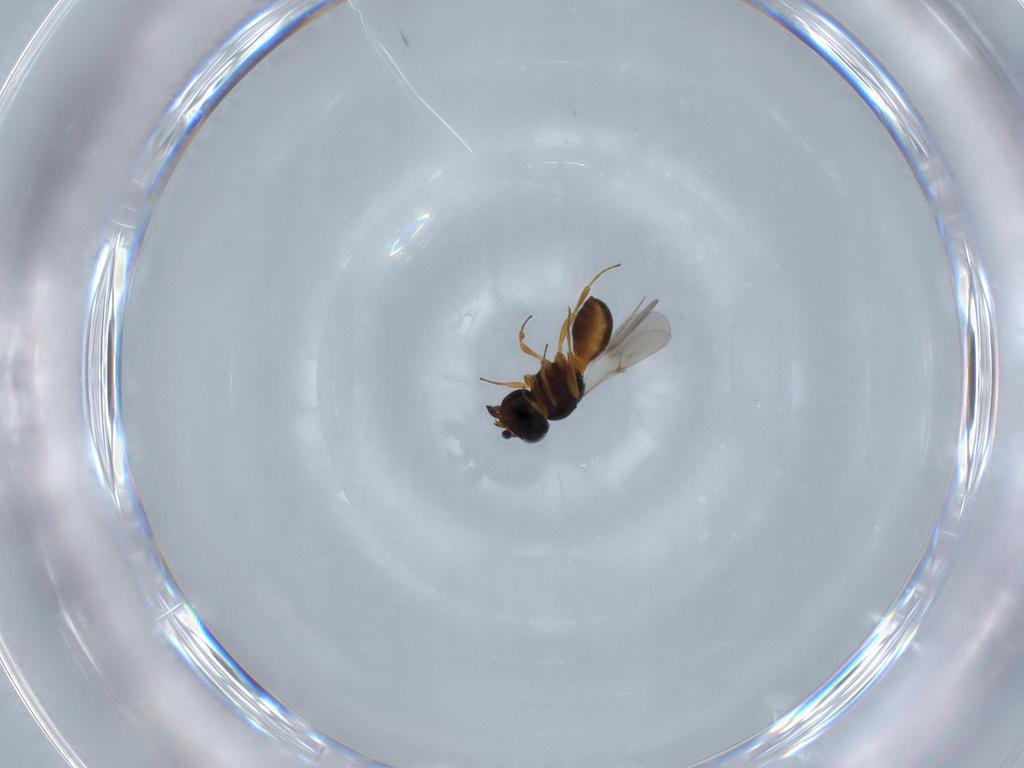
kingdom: Animalia
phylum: Arthropoda
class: Insecta
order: Hymenoptera
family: Scelionidae
